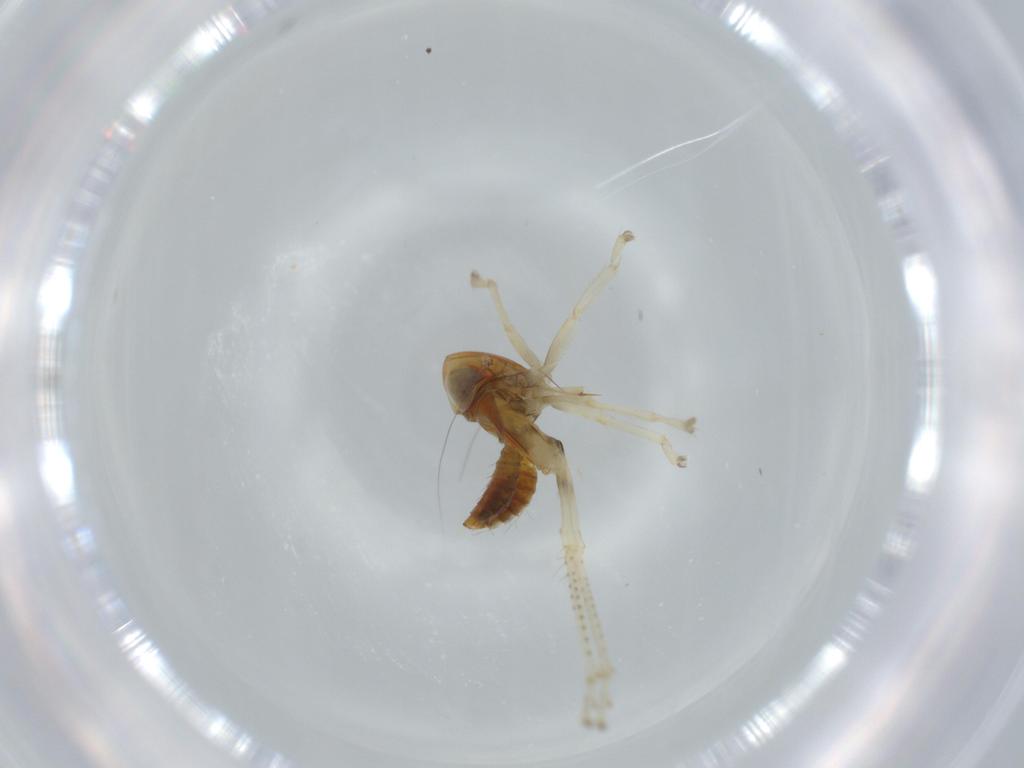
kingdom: Animalia
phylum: Arthropoda
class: Insecta
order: Hemiptera
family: Cicadellidae
